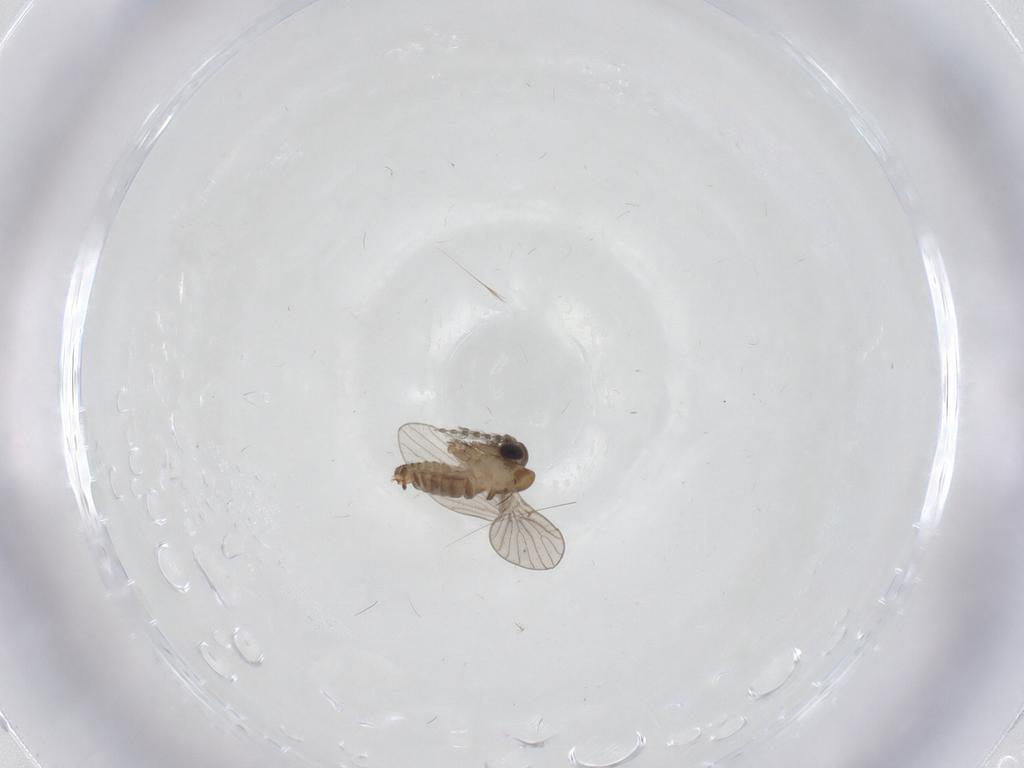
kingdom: Animalia
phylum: Arthropoda
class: Insecta
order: Diptera
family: Psychodidae
